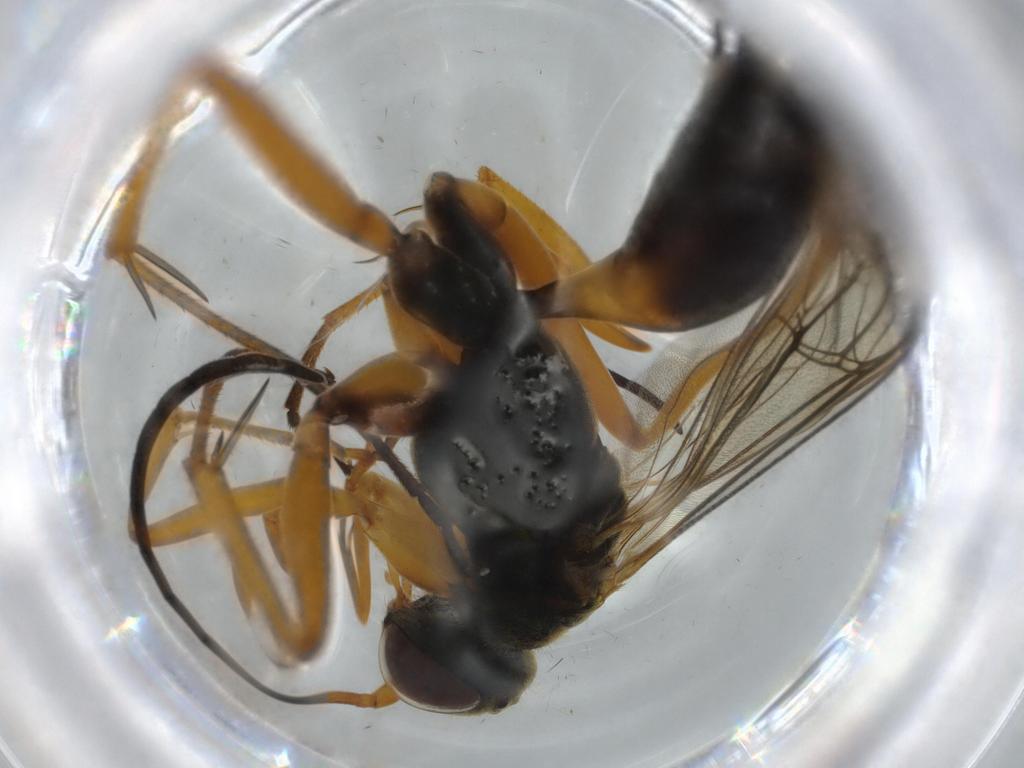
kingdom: Animalia
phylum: Arthropoda
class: Insecta
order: Hymenoptera
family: Pompilidae
